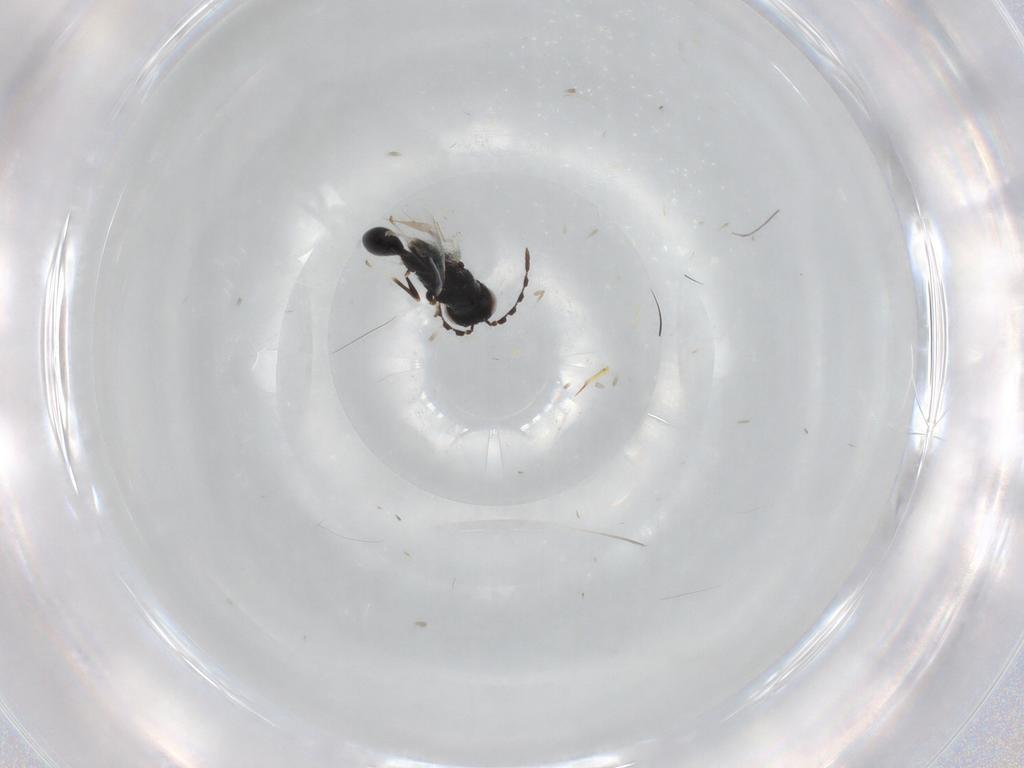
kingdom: Animalia
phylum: Arthropoda
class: Insecta
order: Hymenoptera
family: Eurytomidae
